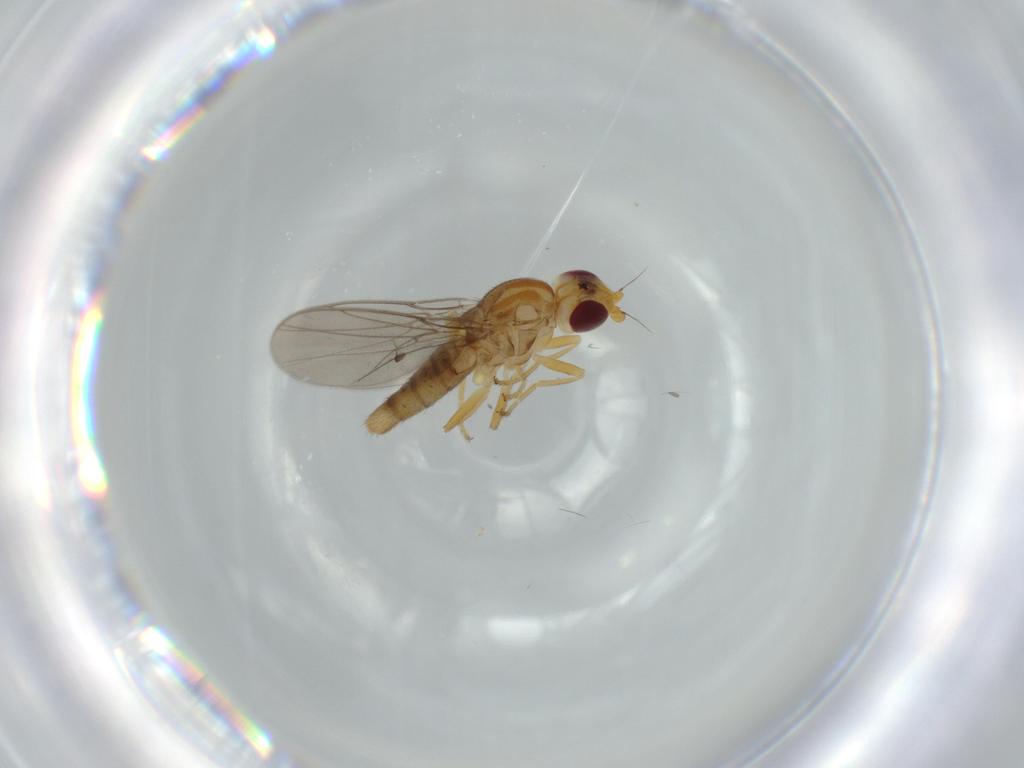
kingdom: Animalia
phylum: Arthropoda
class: Insecta
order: Diptera
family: Chloropidae
